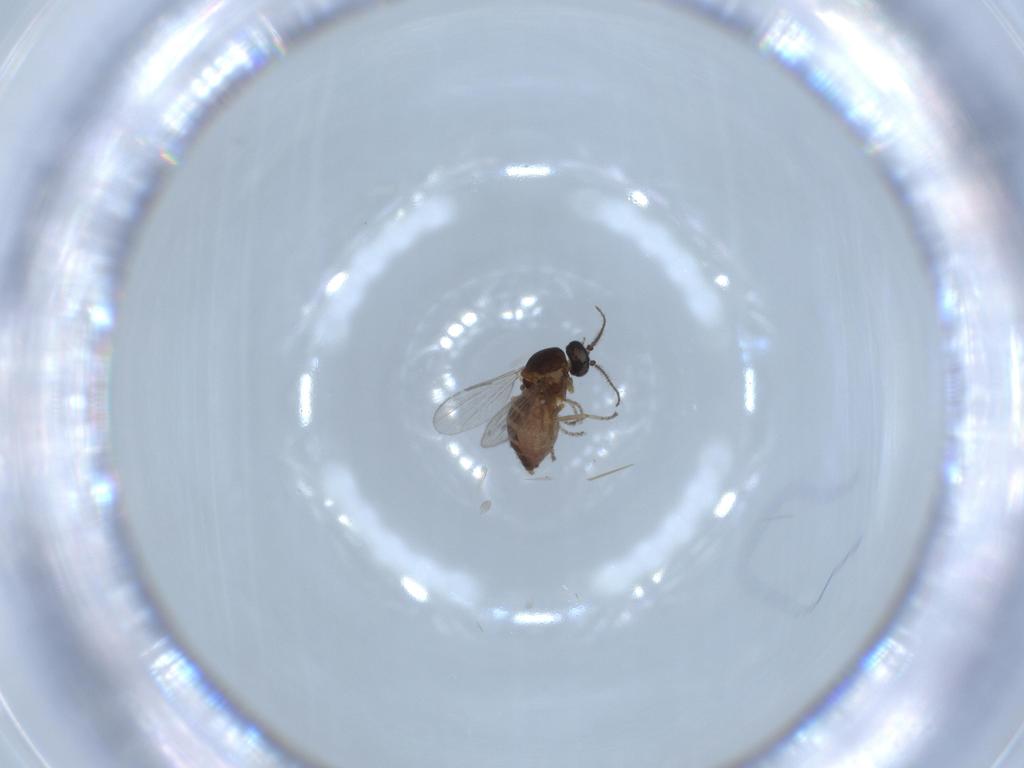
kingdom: Animalia
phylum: Arthropoda
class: Insecta
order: Diptera
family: Ceratopogonidae
